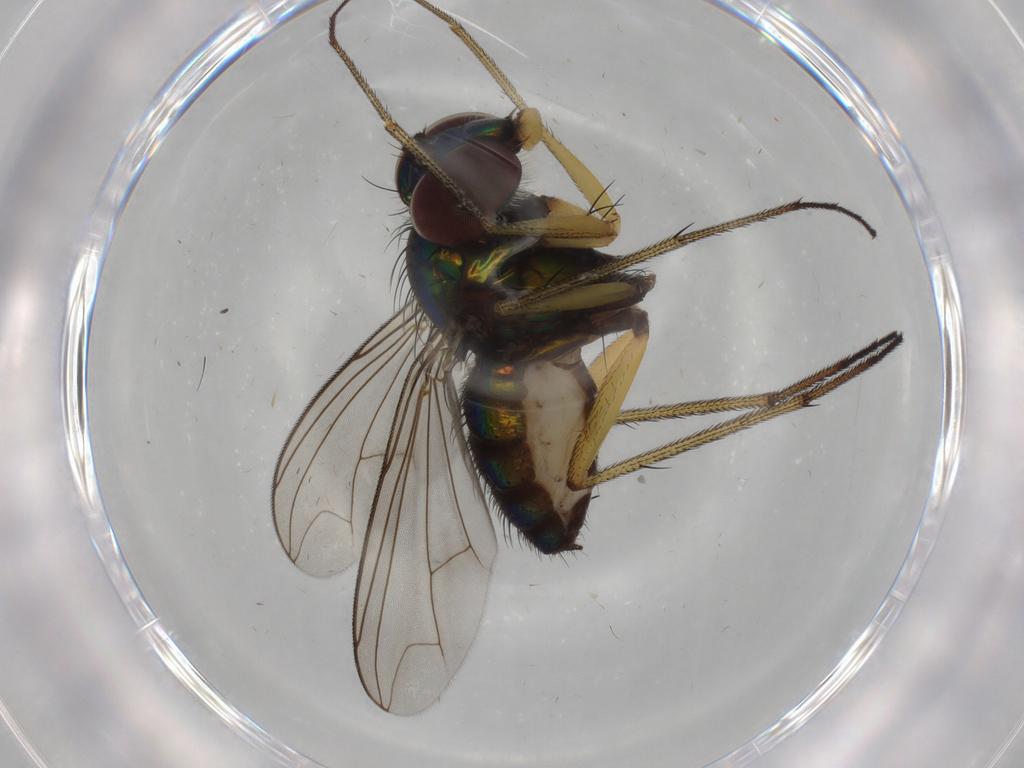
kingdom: Animalia
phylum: Arthropoda
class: Insecta
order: Diptera
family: Dolichopodidae
